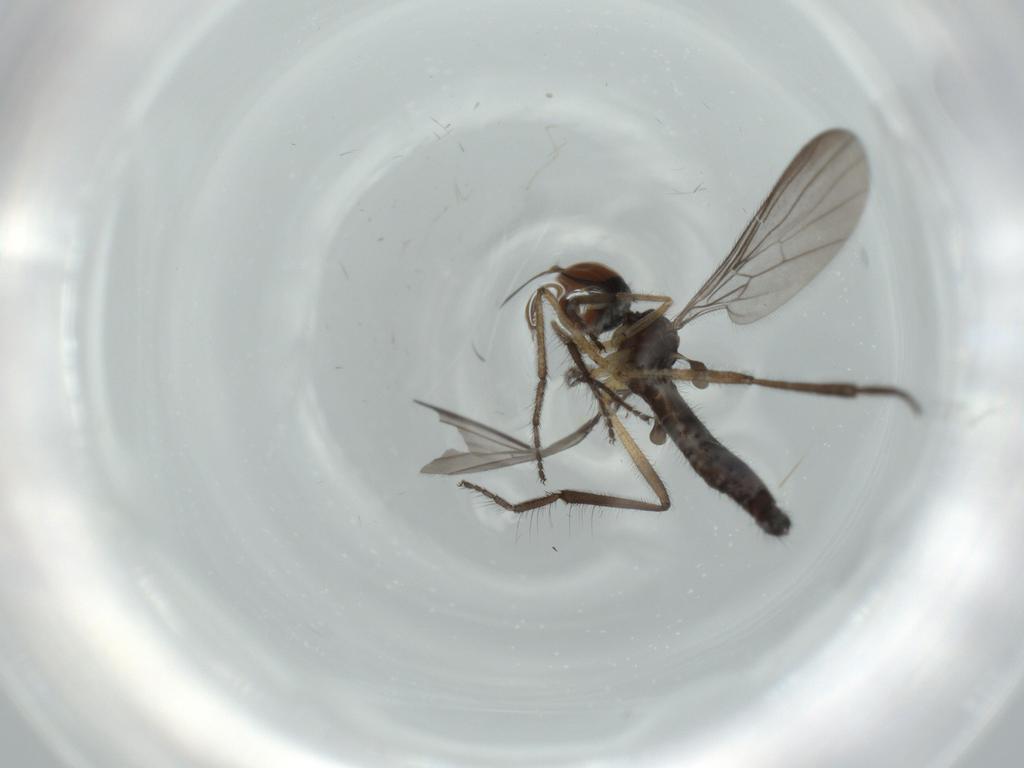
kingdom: Animalia
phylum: Arthropoda
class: Insecta
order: Diptera
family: Empididae
